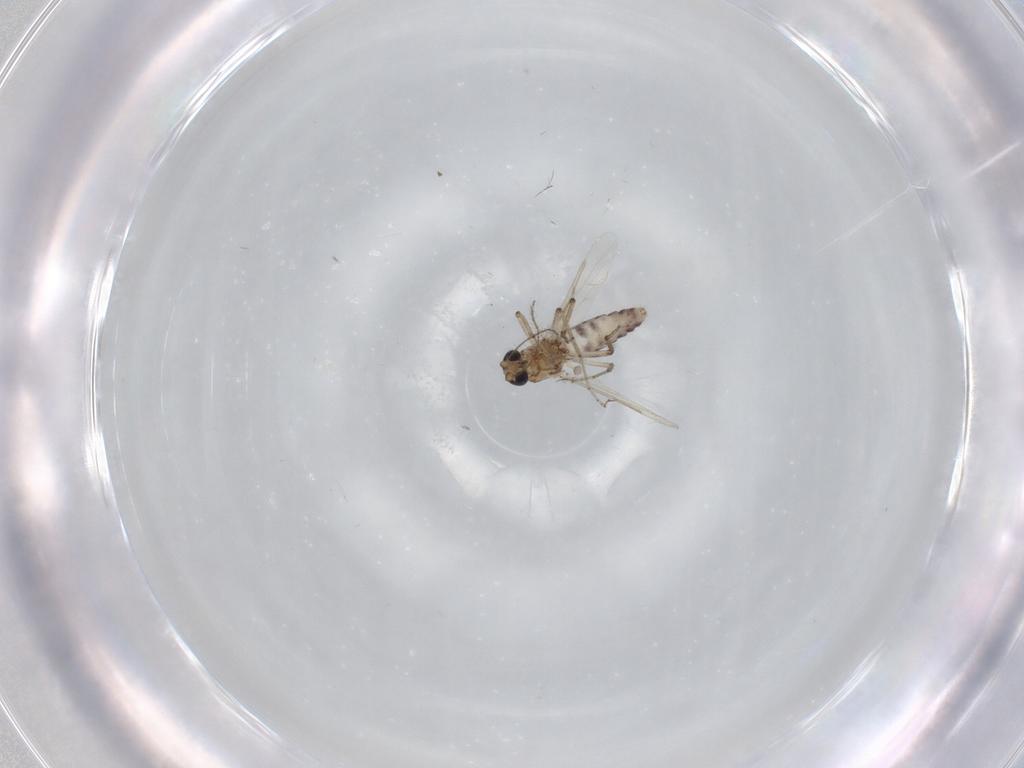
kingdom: Animalia
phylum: Arthropoda
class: Insecta
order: Diptera
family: Ceratopogonidae
